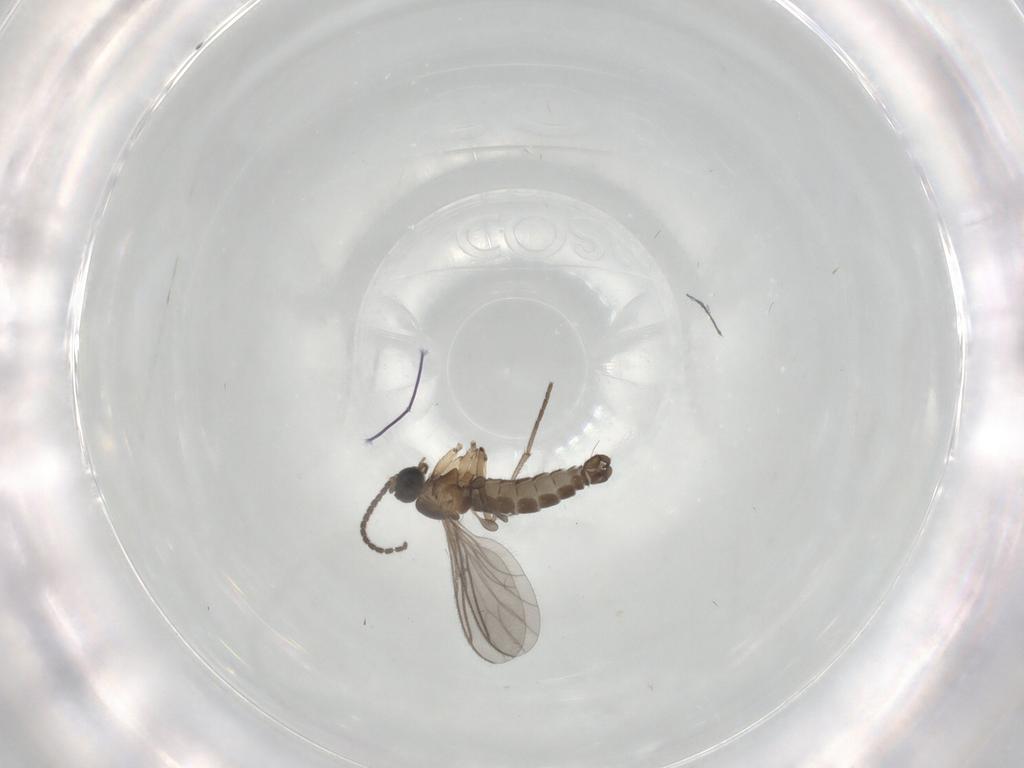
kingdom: Animalia
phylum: Arthropoda
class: Insecta
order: Diptera
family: Sciaridae
